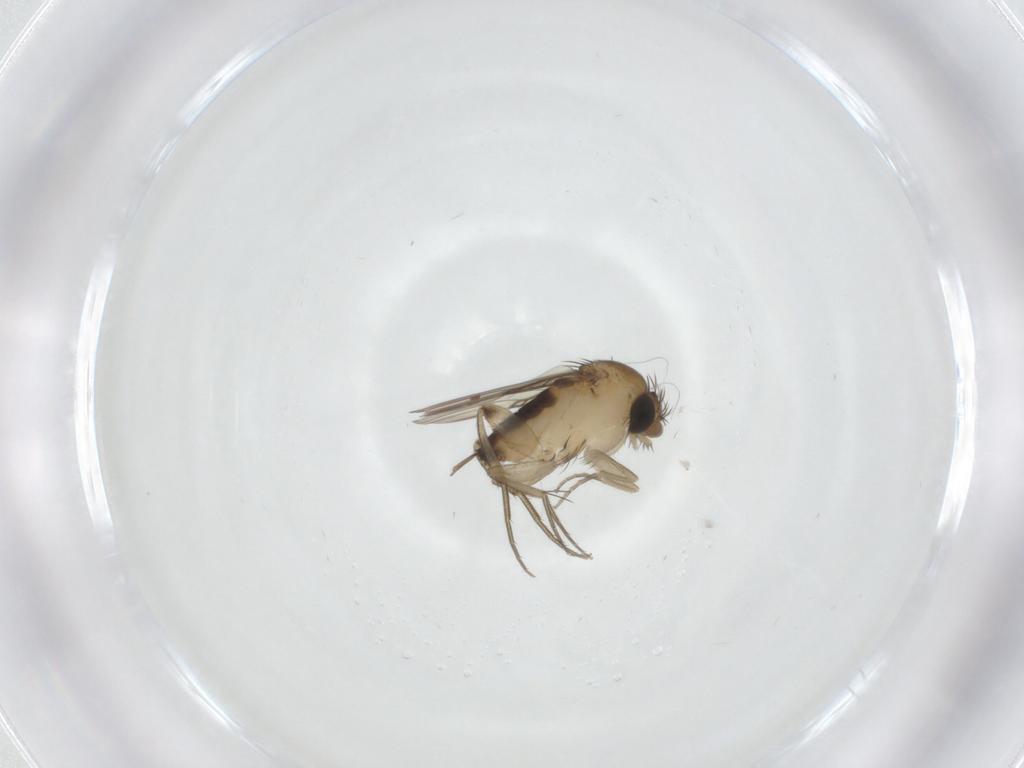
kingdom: Animalia
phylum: Arthropoda
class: Insecta
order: Diptera
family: Phoridae
